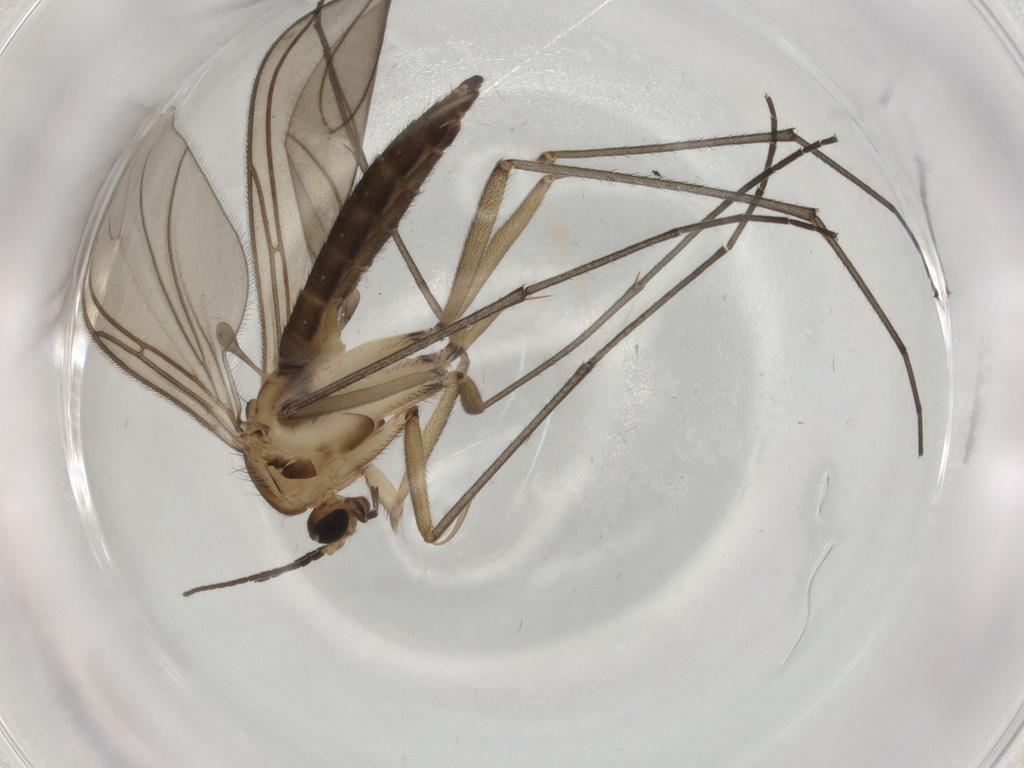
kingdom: Animalia
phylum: Arthropoda
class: Insecta
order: Diptera
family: Sciaridae
